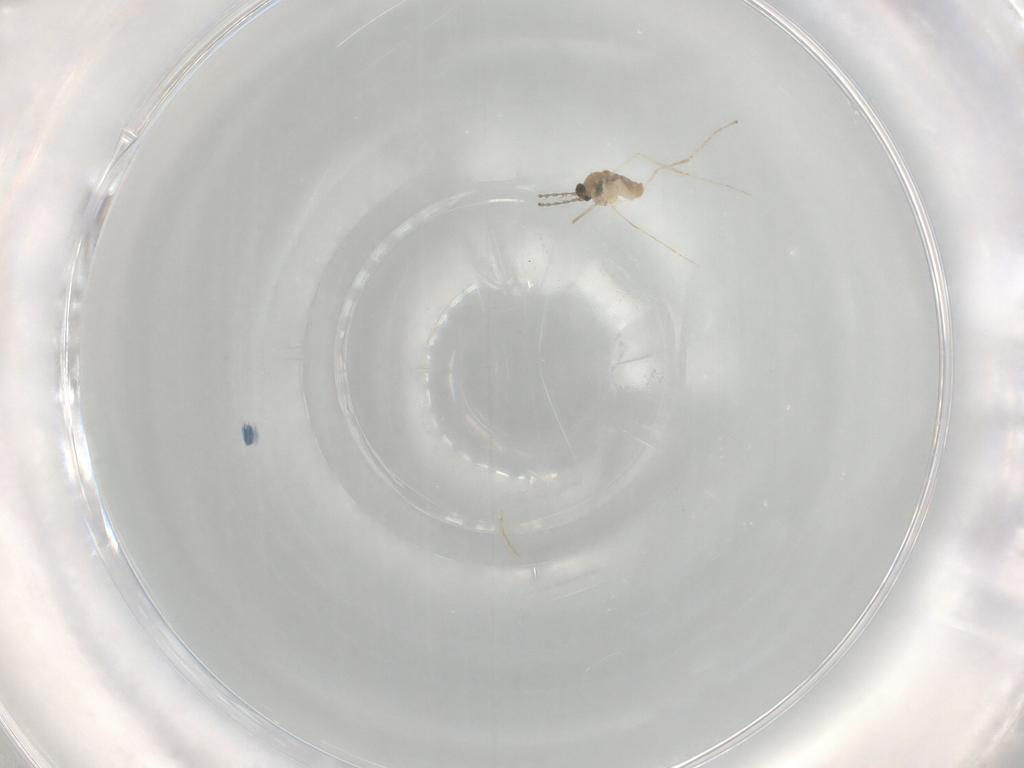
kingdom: Animalia
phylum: Arthropoda
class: Insecta
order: Diptera
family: Cecidomyiidae
